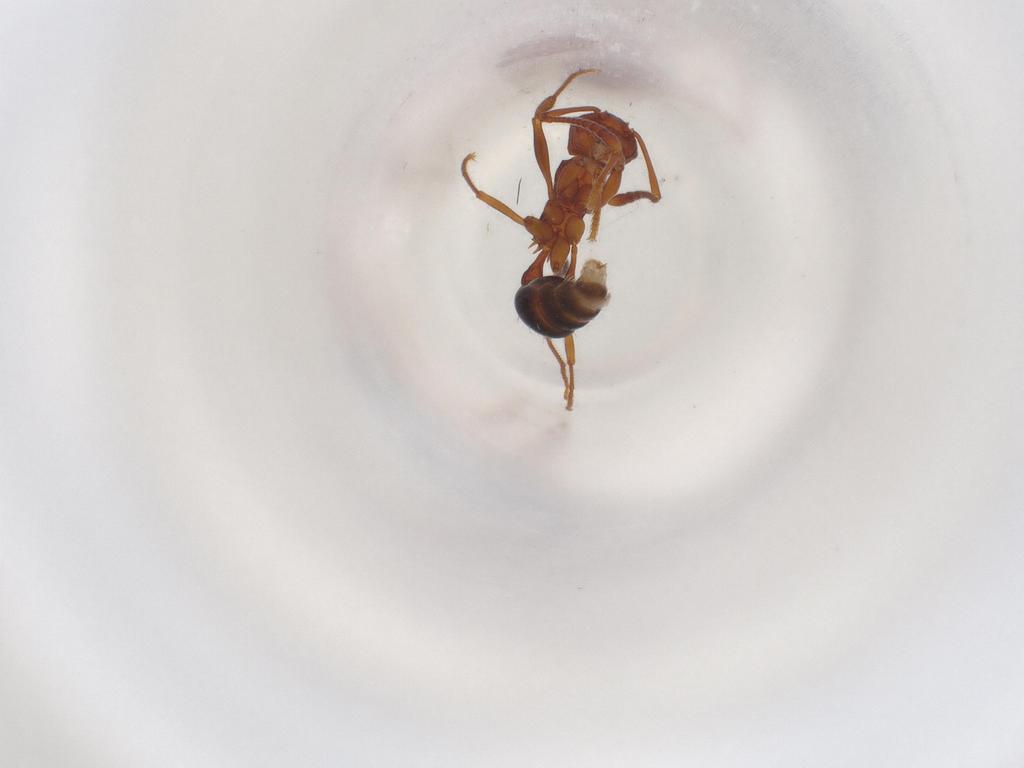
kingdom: Animalia
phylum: Arthropoda
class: Insecta
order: Hymenoptera
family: Formicidae
